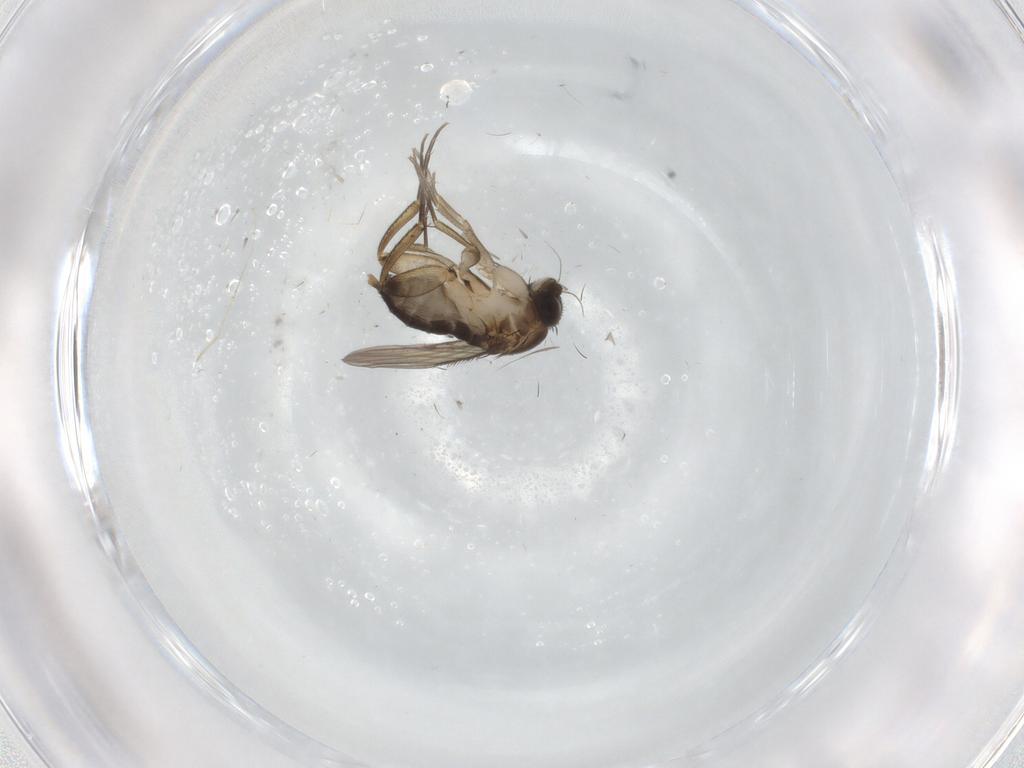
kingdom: Animalia
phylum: Arthropoda
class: Insecta
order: Diptera
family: Phoridae
